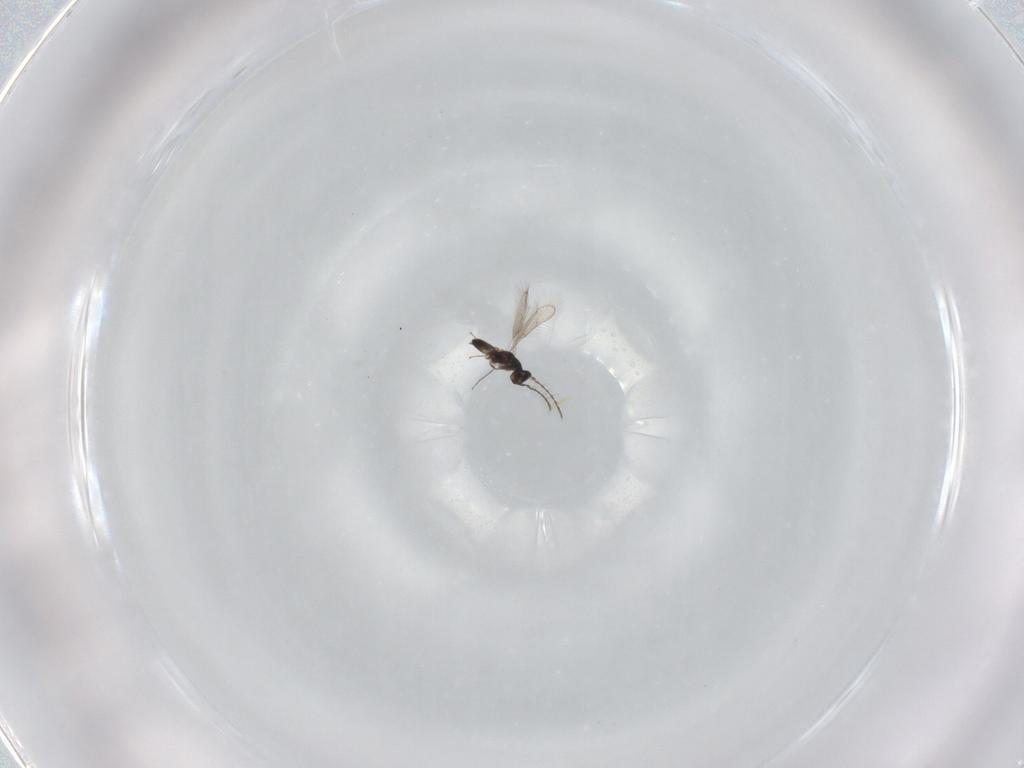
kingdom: Animalia
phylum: Arthropoda
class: Insecta
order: Hymenoptera
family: Pteromalidae
